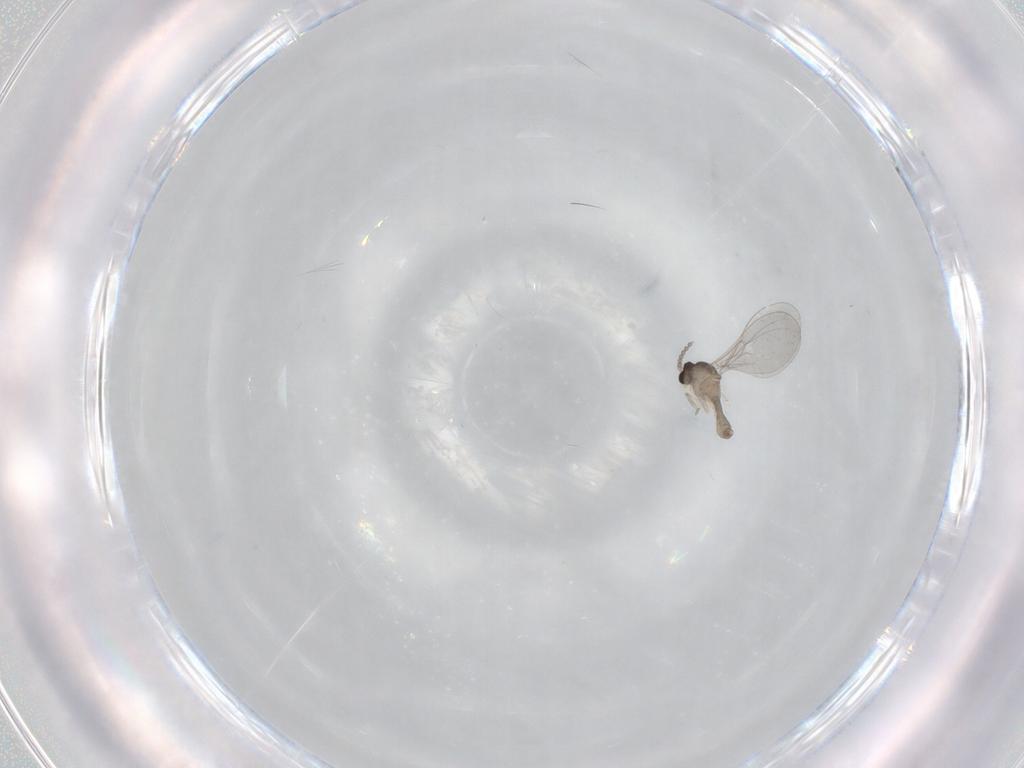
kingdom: Animalia
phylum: Arthropoda
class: Insecta
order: Diptera
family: Cecidomyiidae
